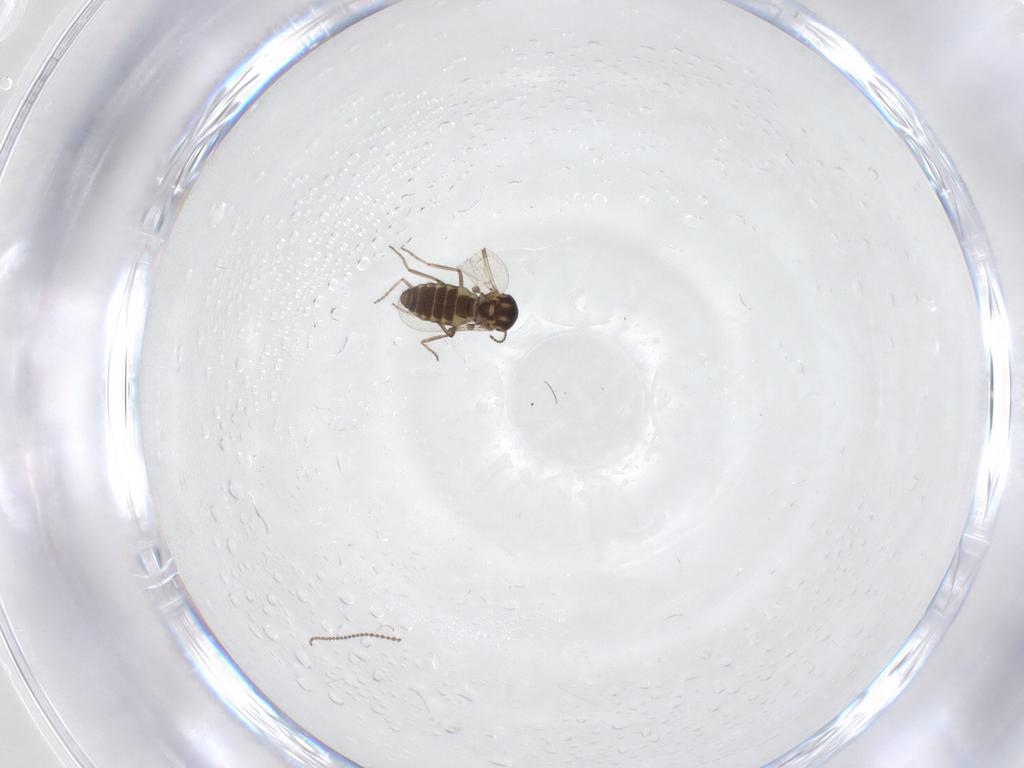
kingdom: Animalia
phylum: Arthropoda
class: Insecta
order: Diptera
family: Ceratopogonidae
